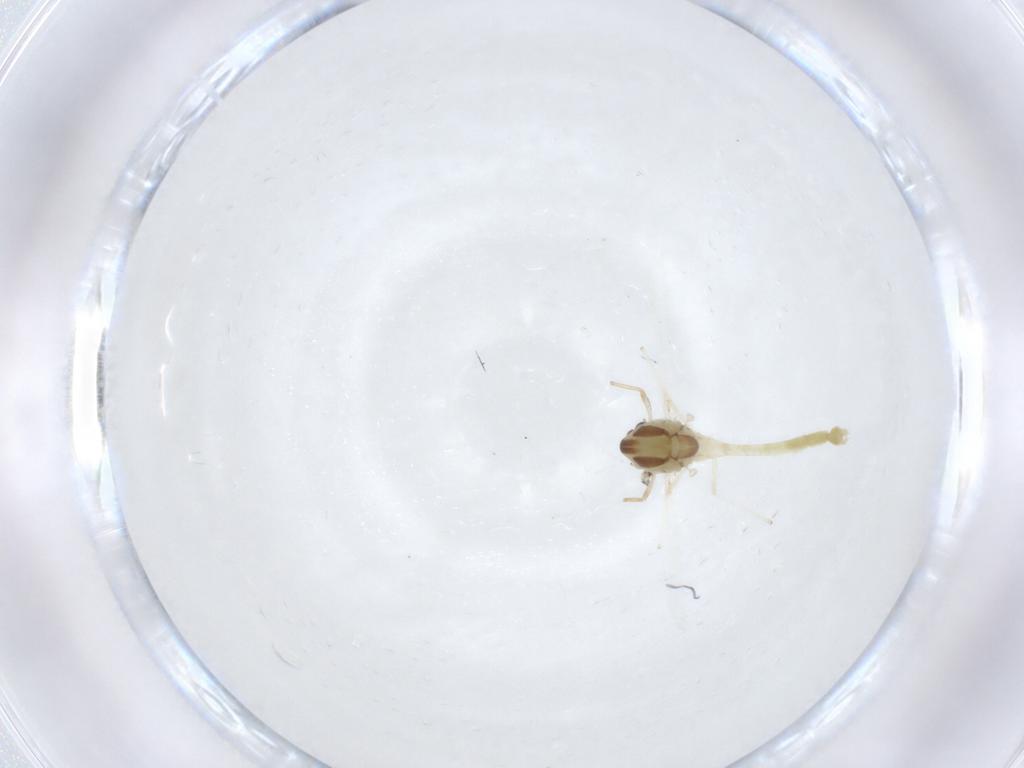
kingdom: Animalia
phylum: Arthropoda
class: Insecta
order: Diptera
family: Chironomidae
